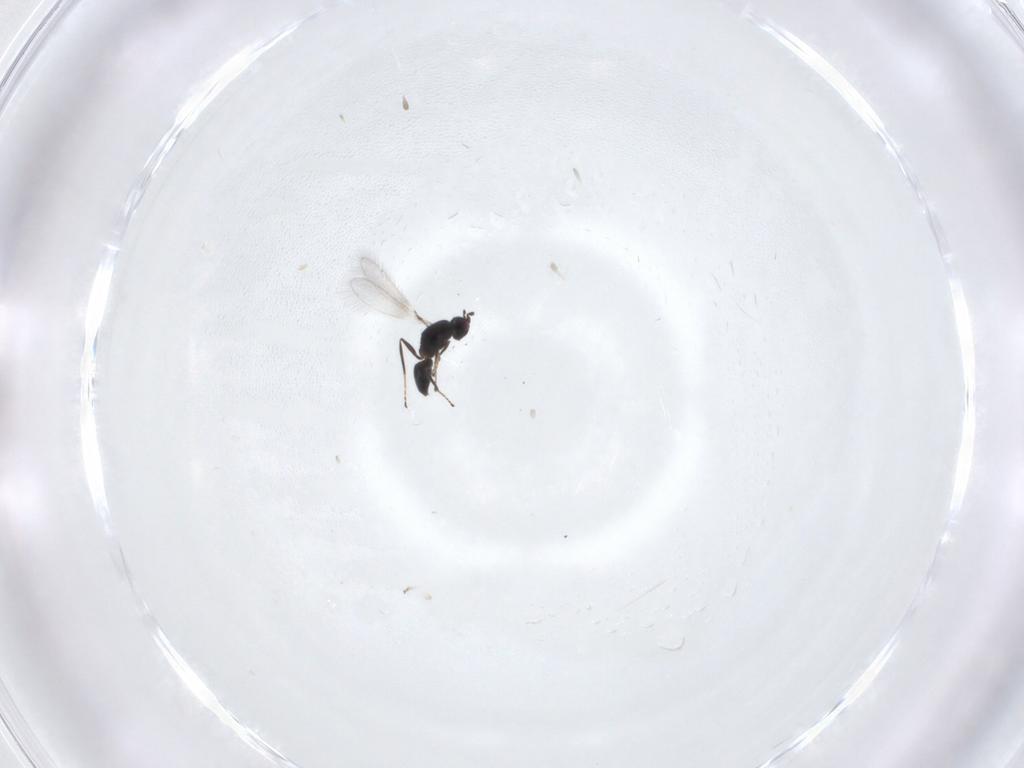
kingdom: Animalia
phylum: Arthropoda
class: Insecta
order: Hymenoptera
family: Mymaridae
